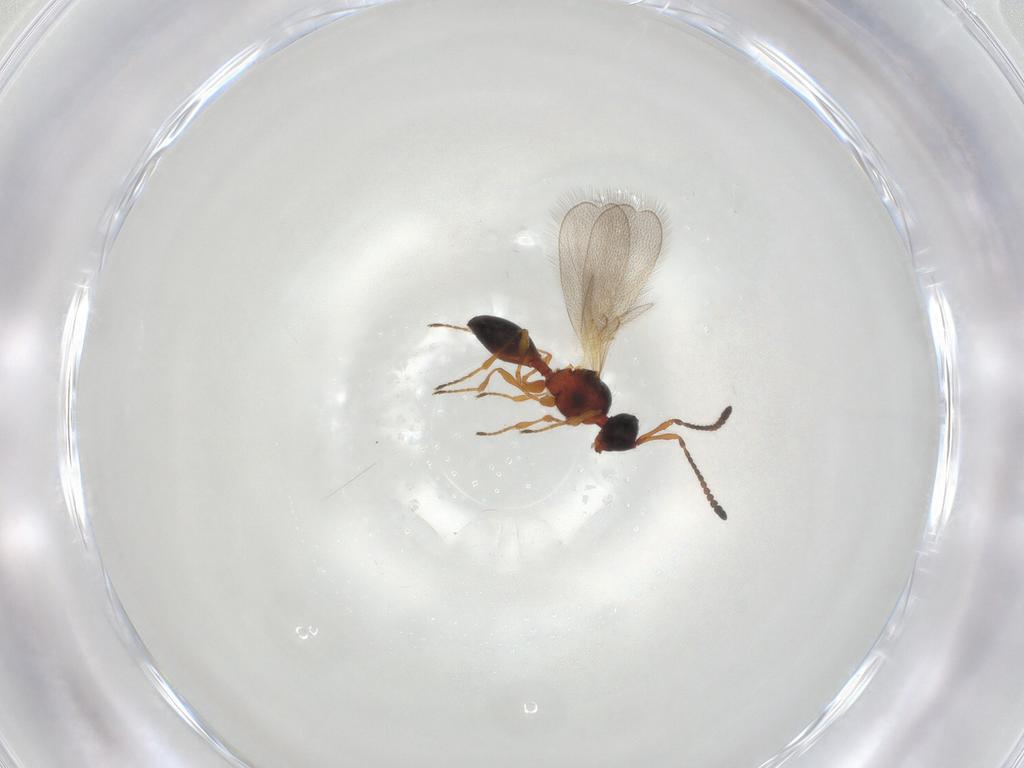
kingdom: Animalia
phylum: Arthropoda
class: Insecta
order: Hymenoptera
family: Diapriidae
